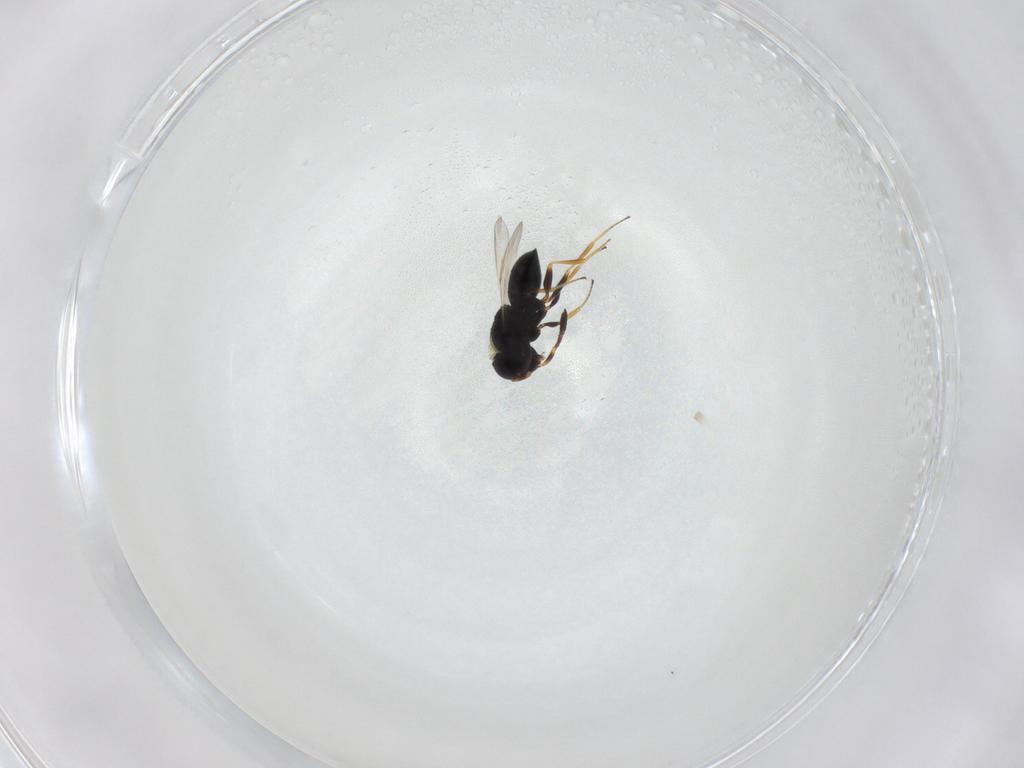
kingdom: Animalia
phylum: Arthropoda
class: Insecta
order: Hymenoptera
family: Scelionidae
